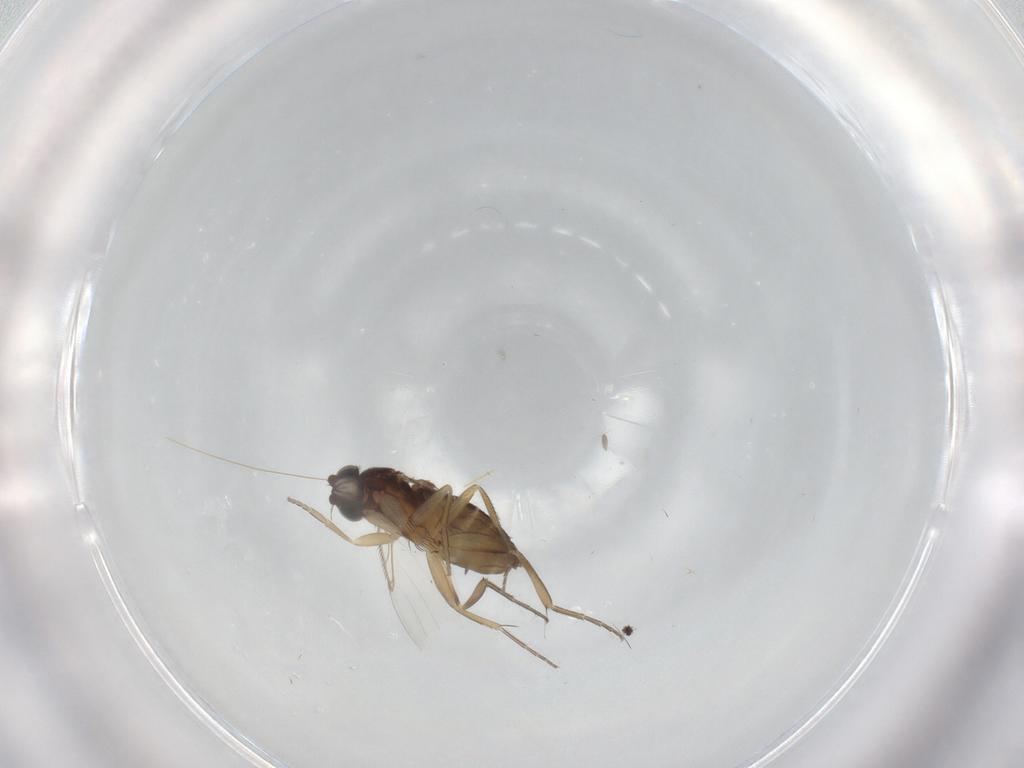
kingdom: Animalia
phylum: Arthropoda
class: Insecta
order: Diptera
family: Phoridae
